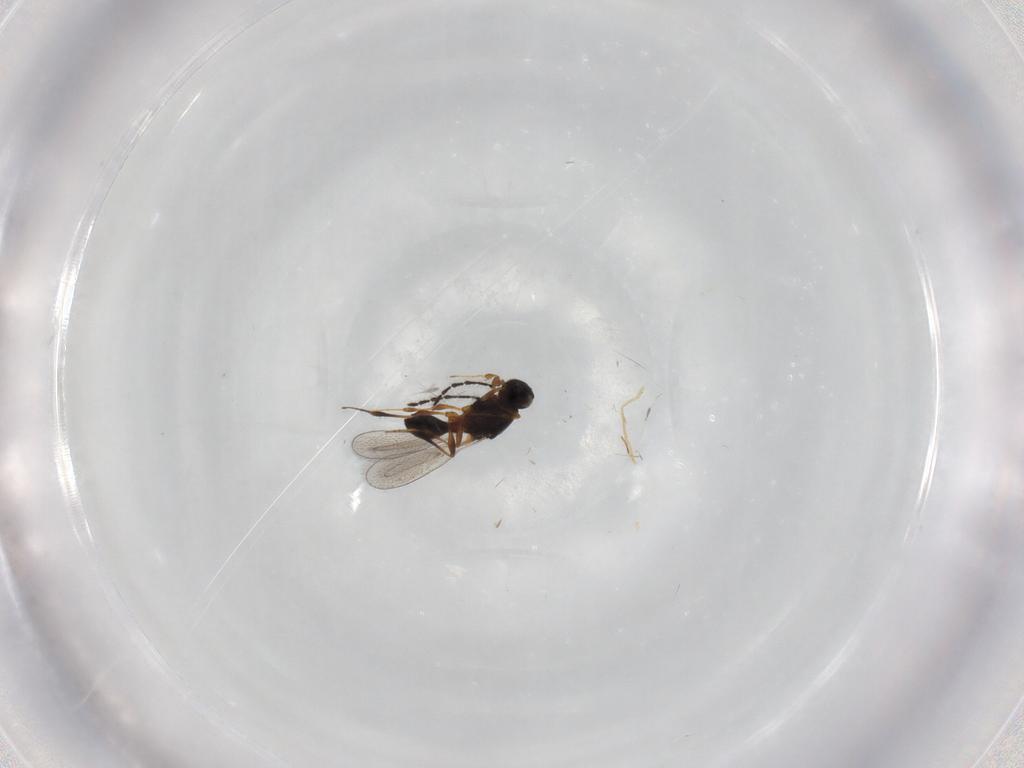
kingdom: Animalia
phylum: Arthropoda
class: Insecta
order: Hymenoptera
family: Platygastridae
